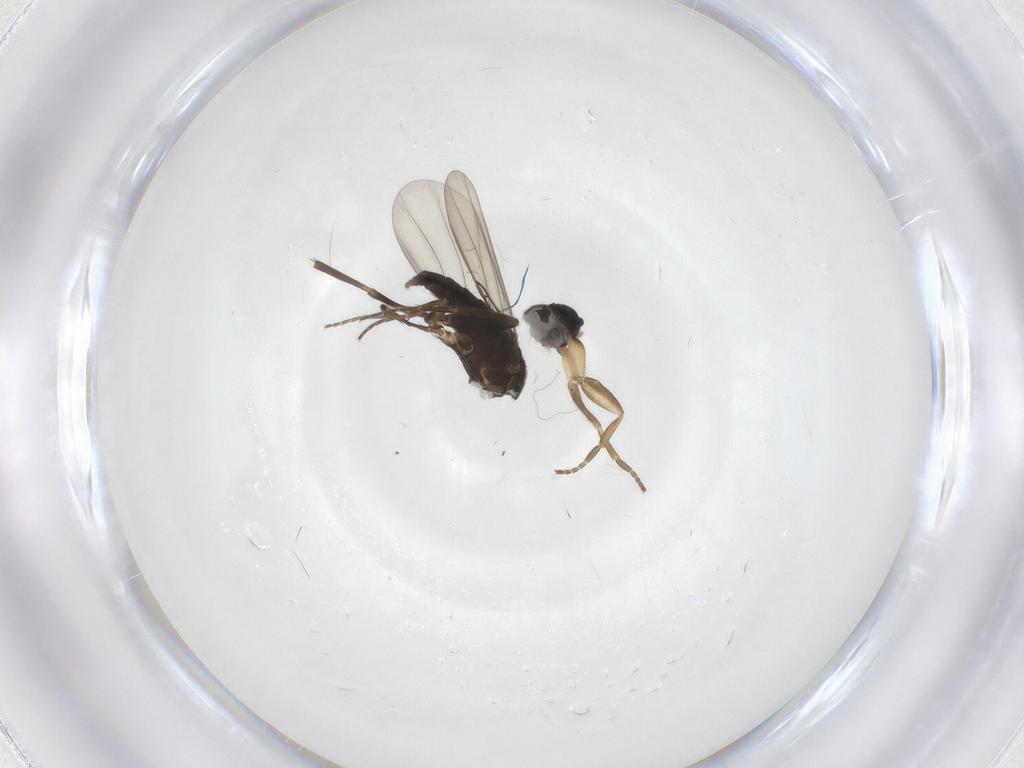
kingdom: Animalia
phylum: Arthropoda
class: Insecta
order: Diptera
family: Phoridae
